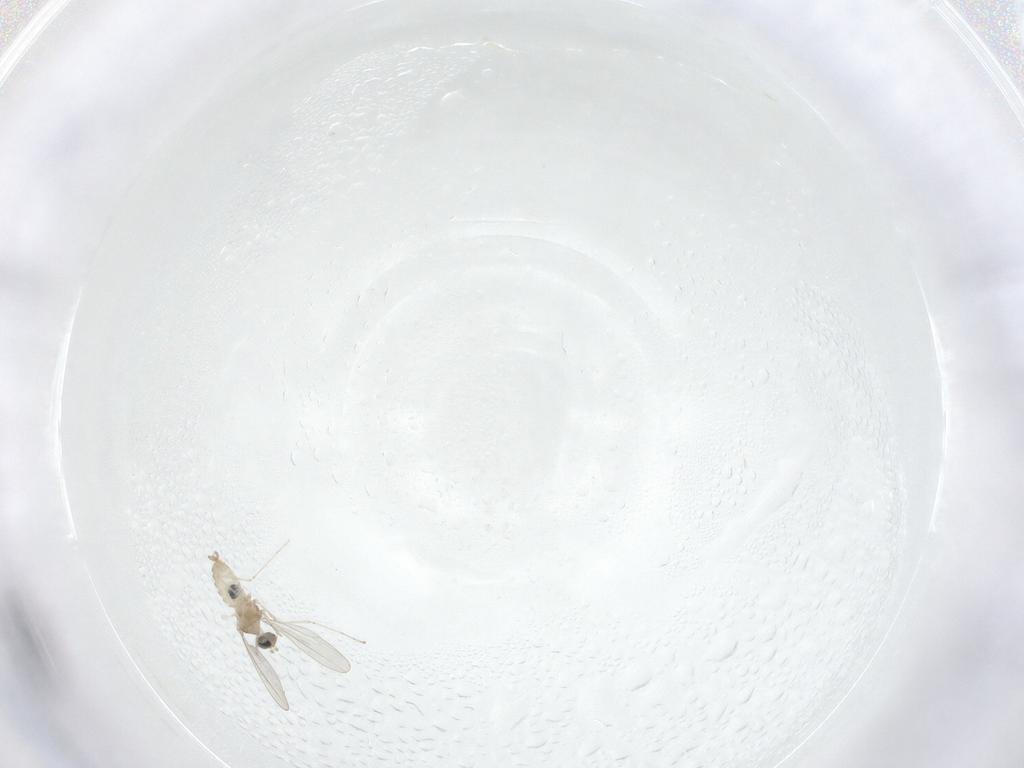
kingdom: Animalia
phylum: Arthropoda
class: Insecta
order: Diptera
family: Cecidomyiidae
